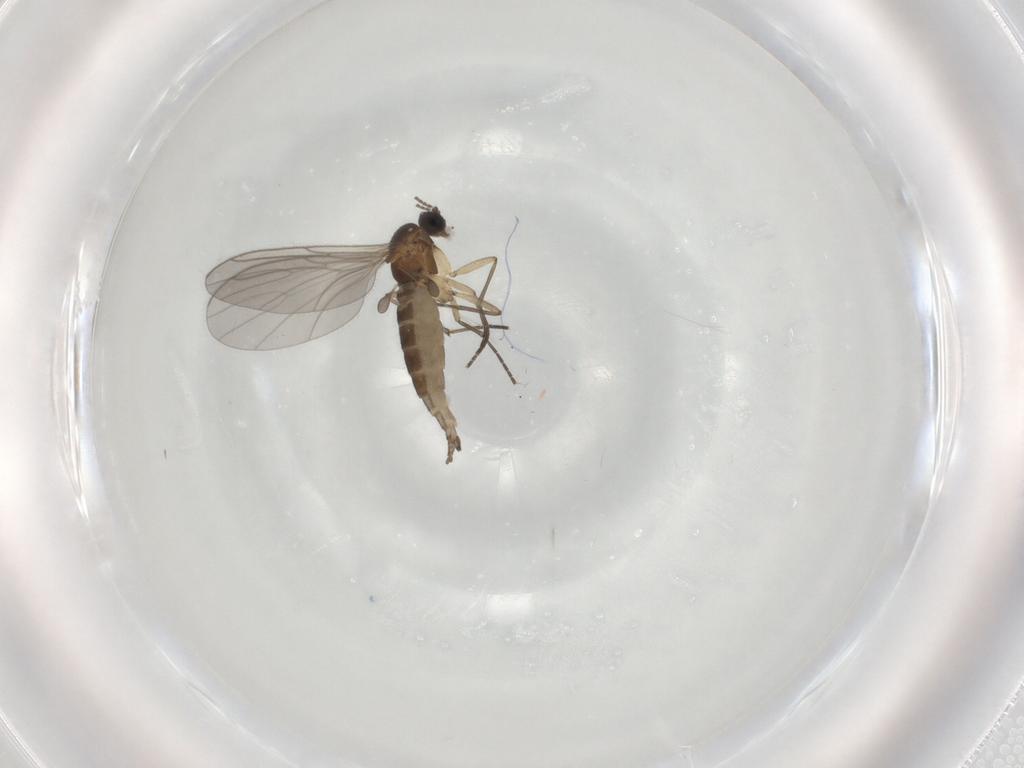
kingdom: Animalia
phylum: Arthropoda
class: Insecta
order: Diptera
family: Sciaridae
